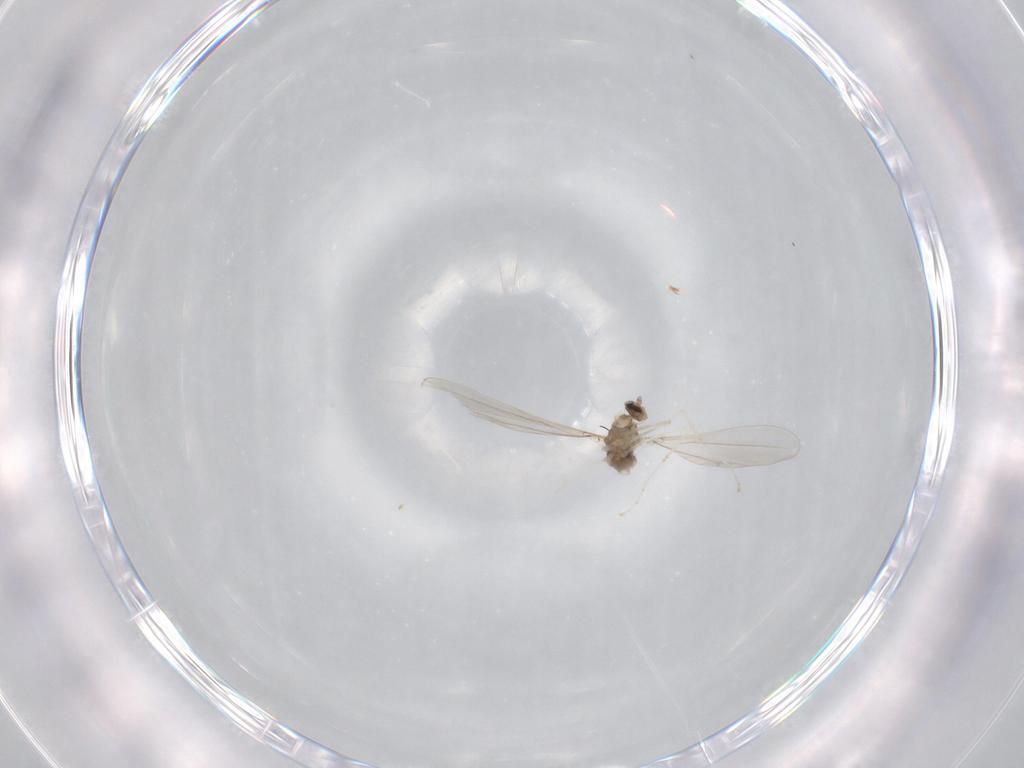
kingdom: Animalia
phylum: Arthropoda
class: Insecta
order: Diptera
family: Cecidomyiidae
